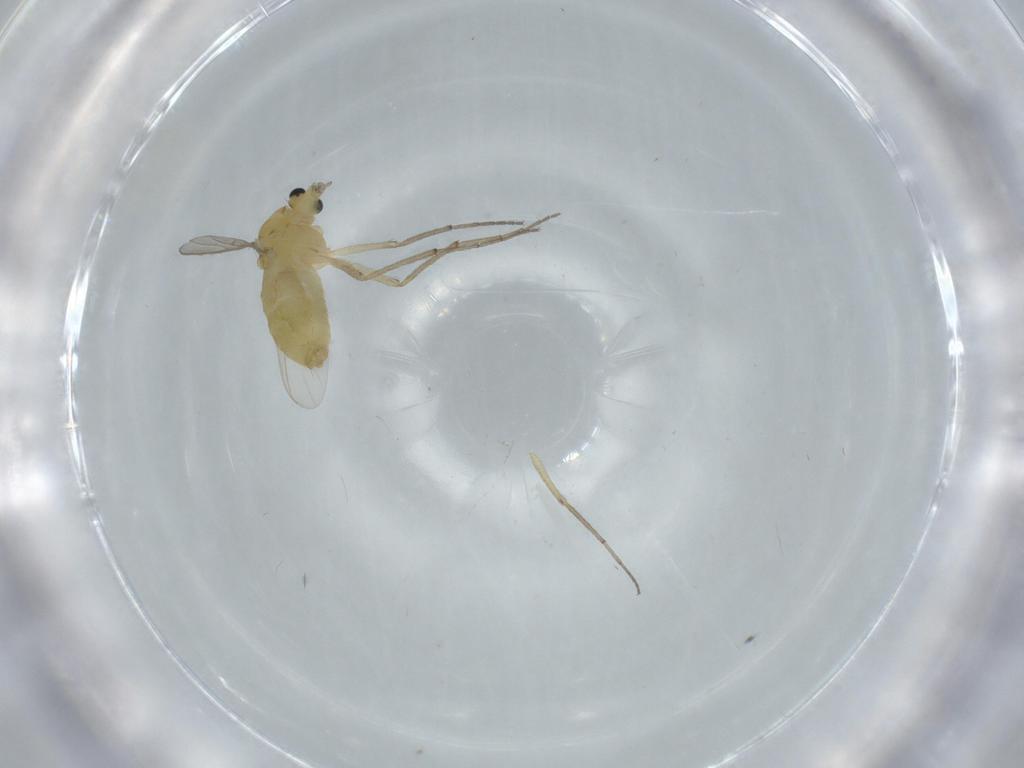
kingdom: Animalia
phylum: Arthropoda
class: Insecta
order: Diptera
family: Chironomidae
